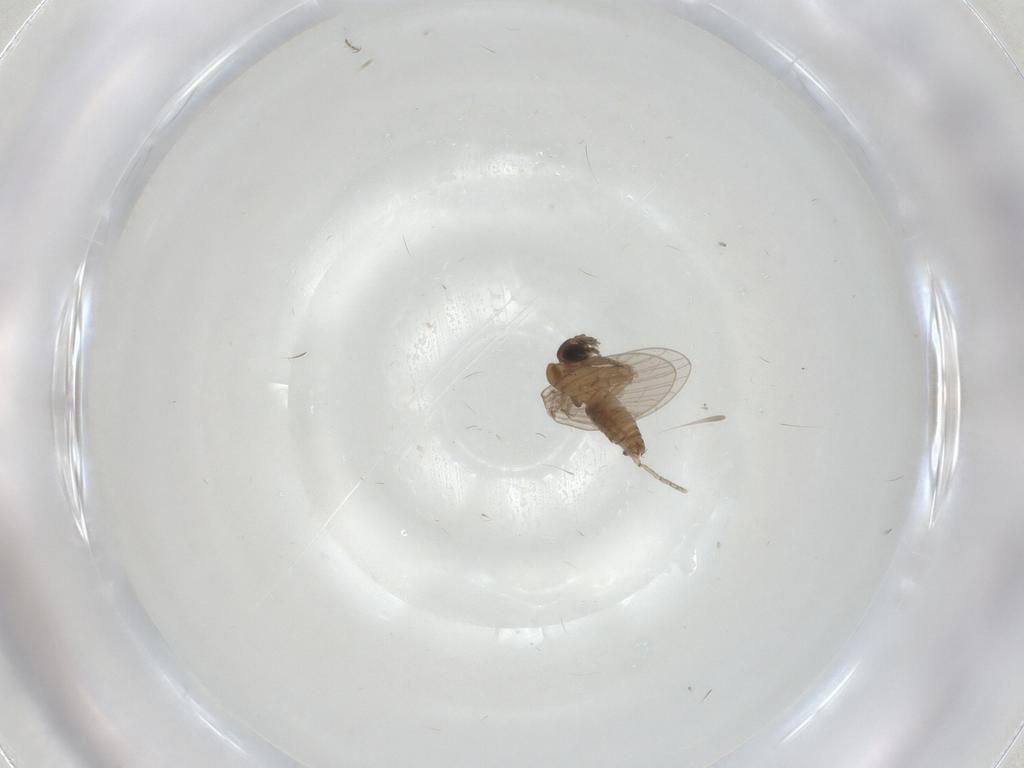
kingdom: Animalia
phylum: Arthropoda
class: Insecta
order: Diptera
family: Psychodidae
